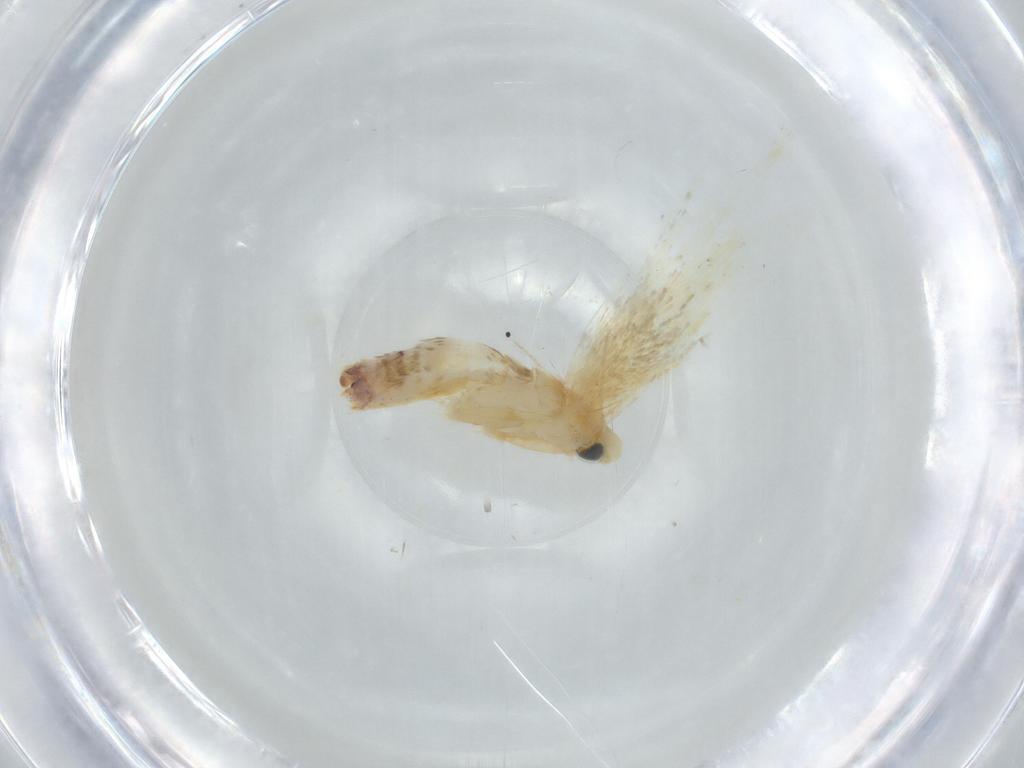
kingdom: Animalia
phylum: Arthropoda
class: Insecta
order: Lepidoptera
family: Tischeriidae
